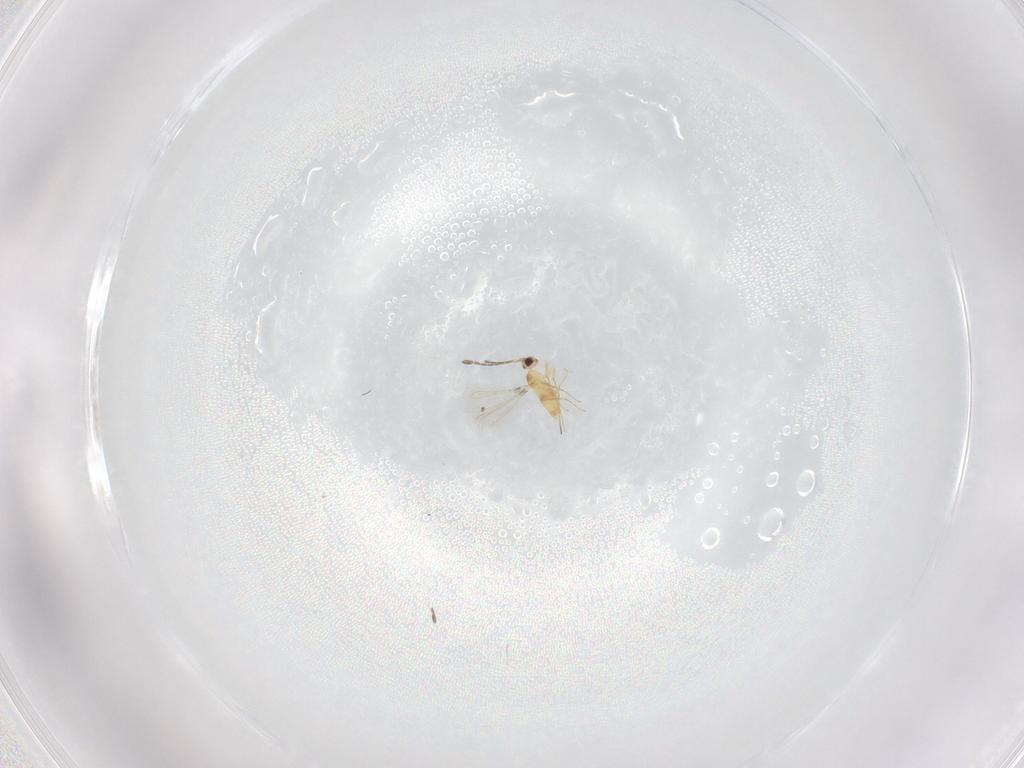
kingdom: Animalia
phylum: Arthropoda
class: Insecta
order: Hymenoptera
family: Mymaridae
